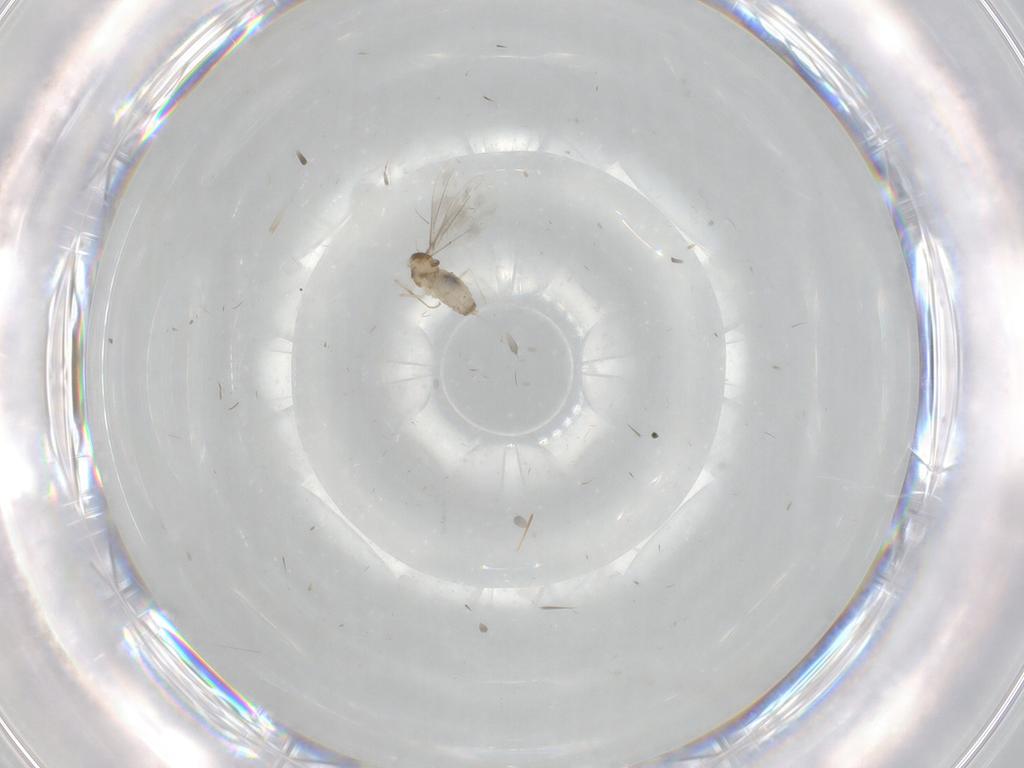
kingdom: Animalia
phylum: Arthropoda
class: Insecta
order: Diptera
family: Cecidomyiidae
